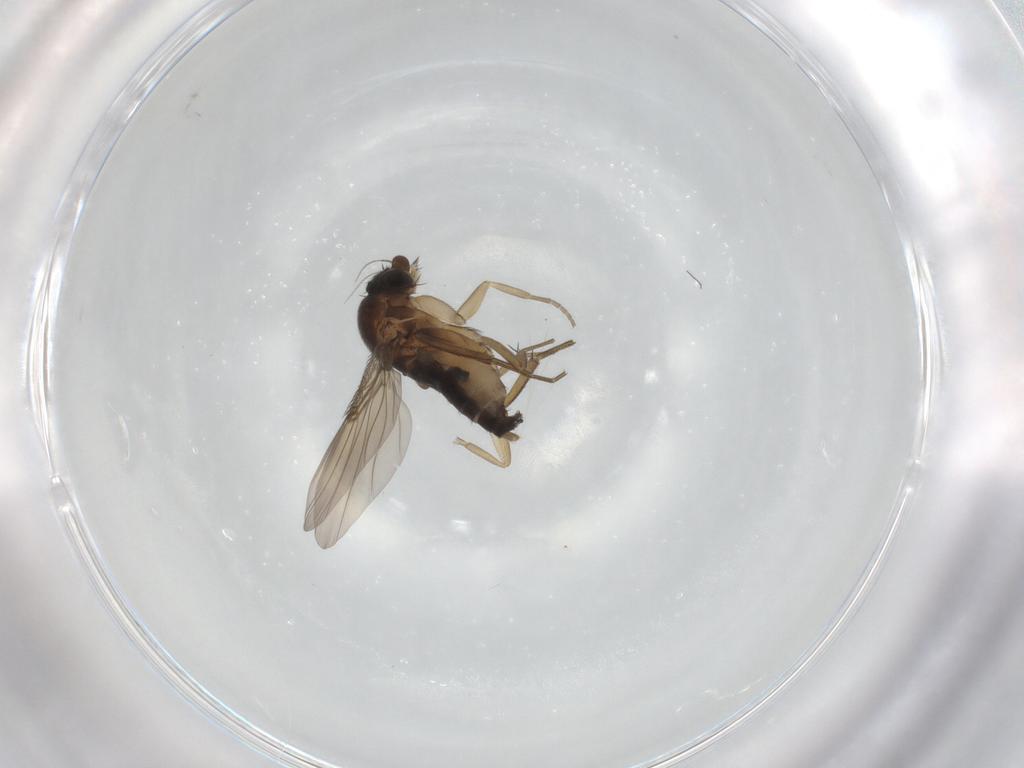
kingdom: Animalia
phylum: Arthropoda
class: Insecta
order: Diptera
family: Phoridae
